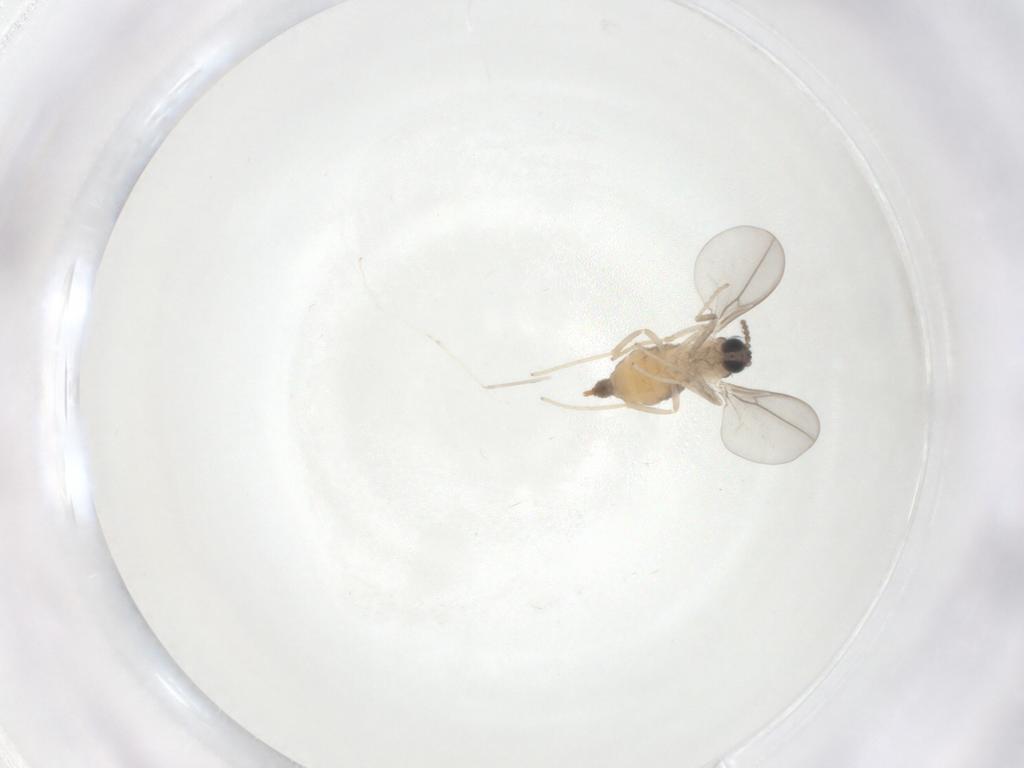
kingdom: Animalia
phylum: Arthropoda
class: Insecta
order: Diptera
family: Cecidomyiidae
